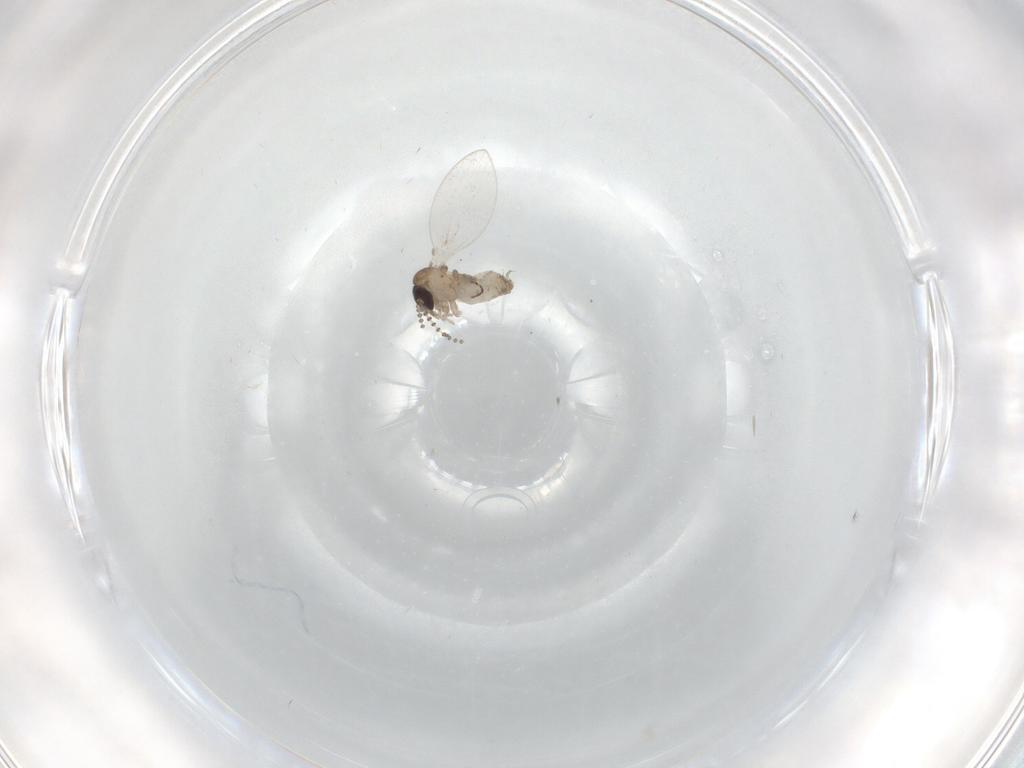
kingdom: Animalia
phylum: Arthropoda
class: Insecta
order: Diptera
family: Psychodidae
